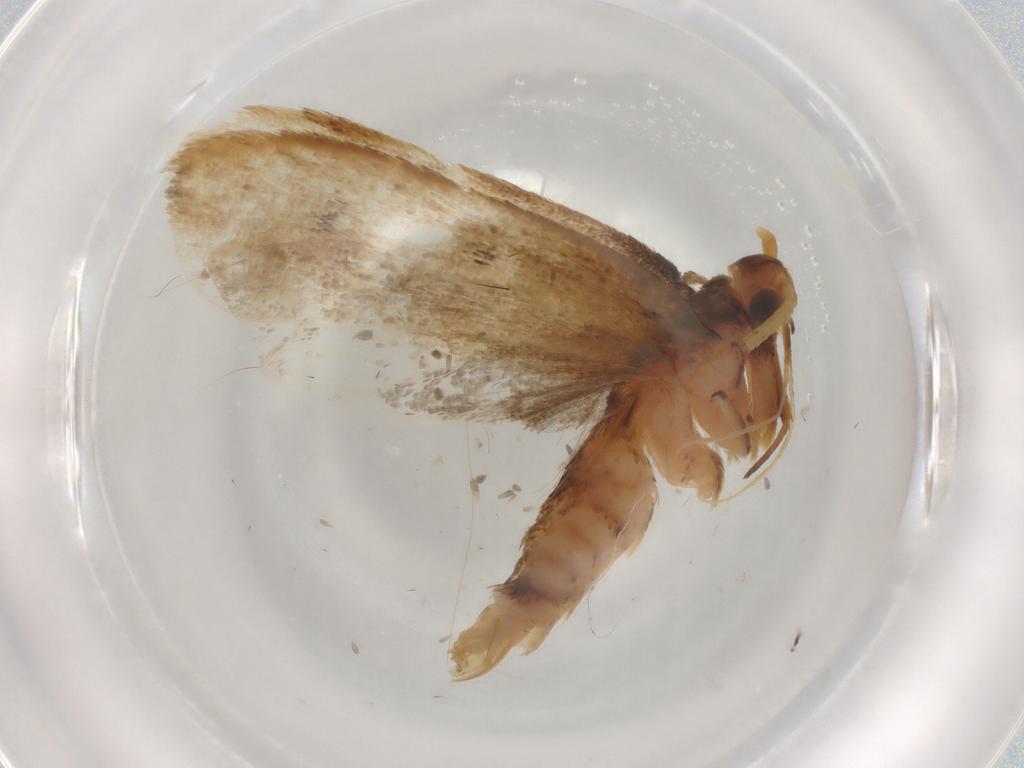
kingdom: Animalia
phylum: Arthropoda
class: Insecta
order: Lepidoptera
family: Lecithoceridae
